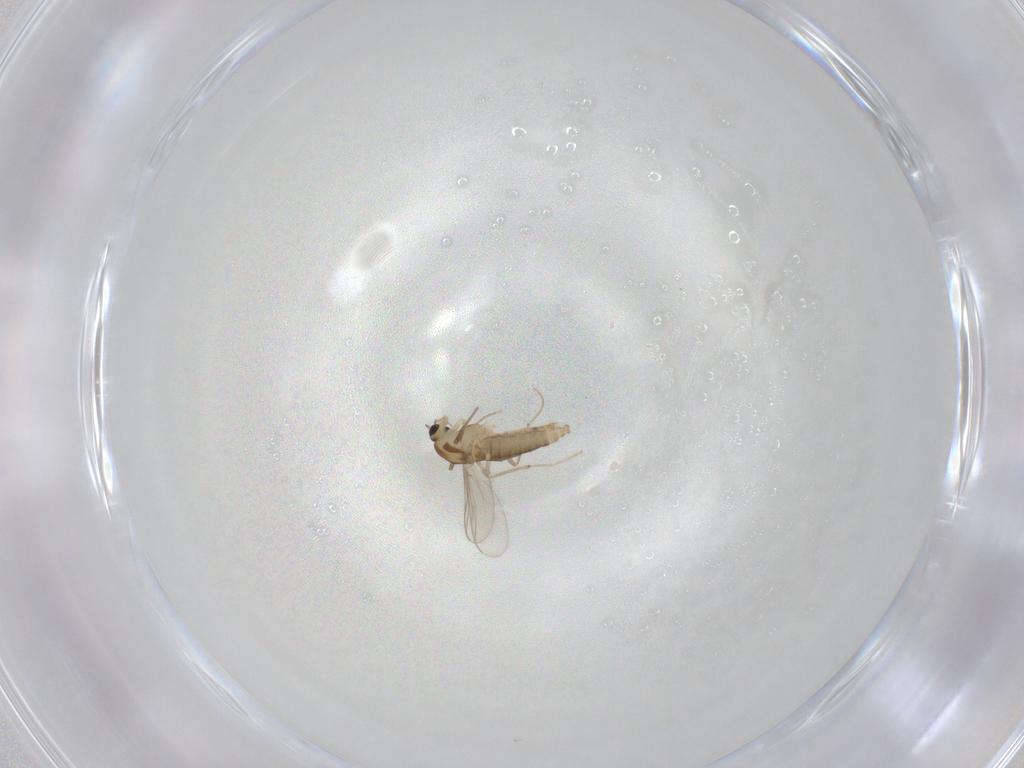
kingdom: Animalia
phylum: Arthropoda
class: Insecta
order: Diptera
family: Chironomidae
